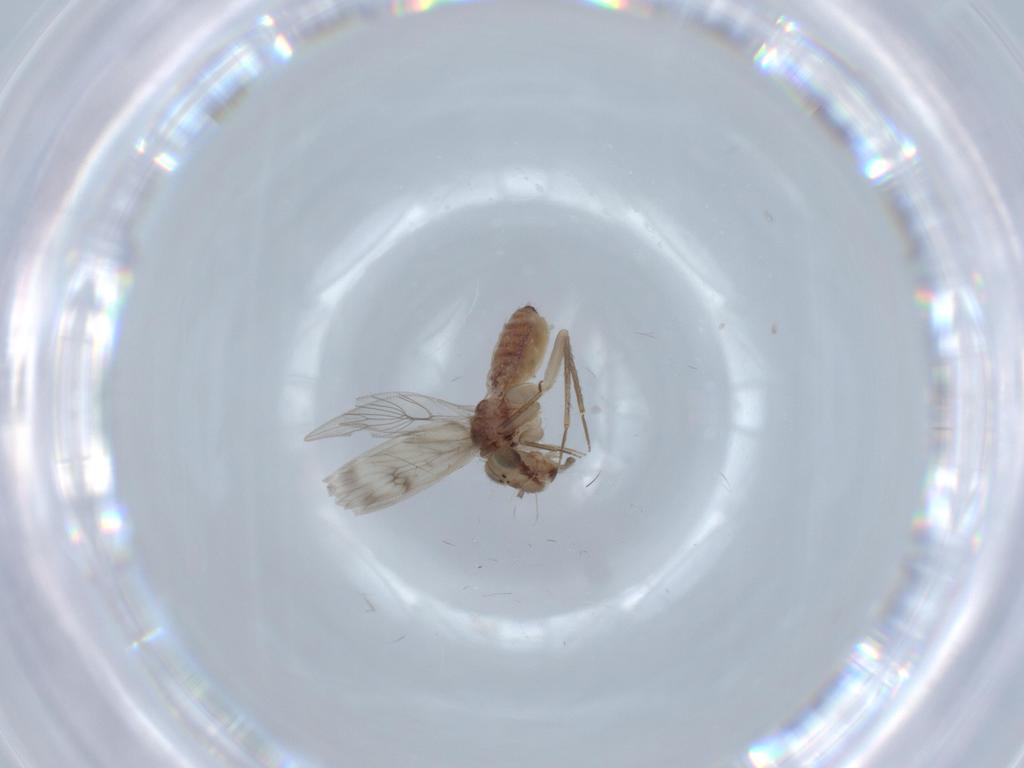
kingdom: Animalia
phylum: Arthropoda
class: Insecta
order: Psocodea
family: Lepidopsocidae
